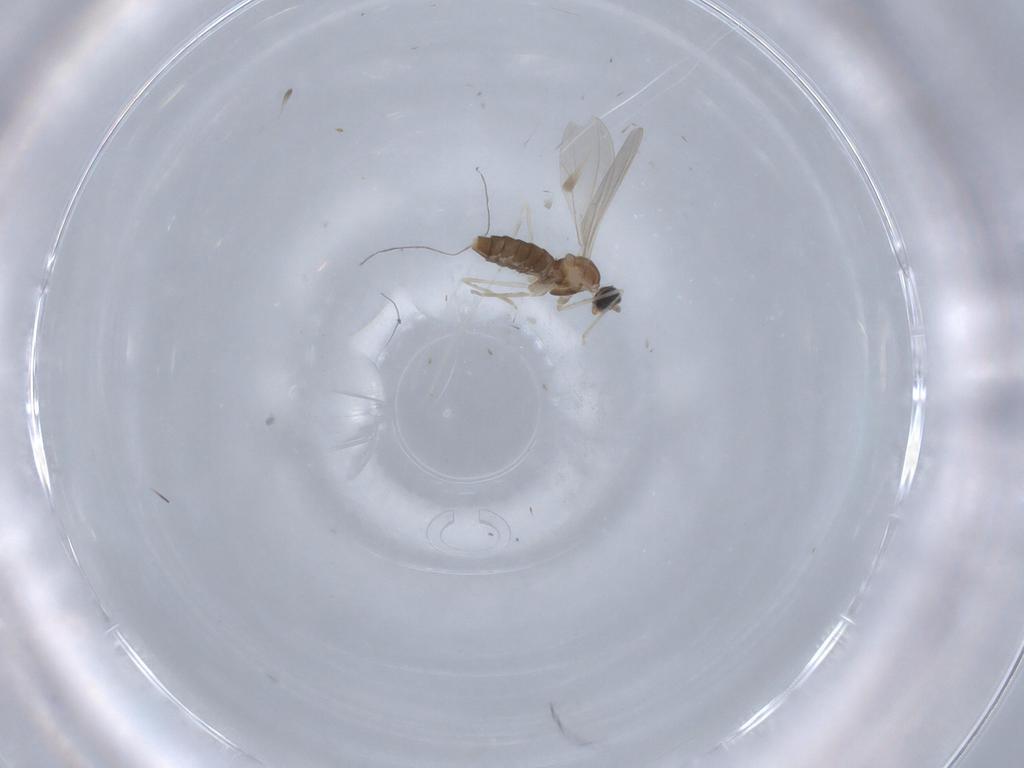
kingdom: Animalia
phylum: Arthropoda
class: Insecta
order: Diptera
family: Cecidomyiidae
